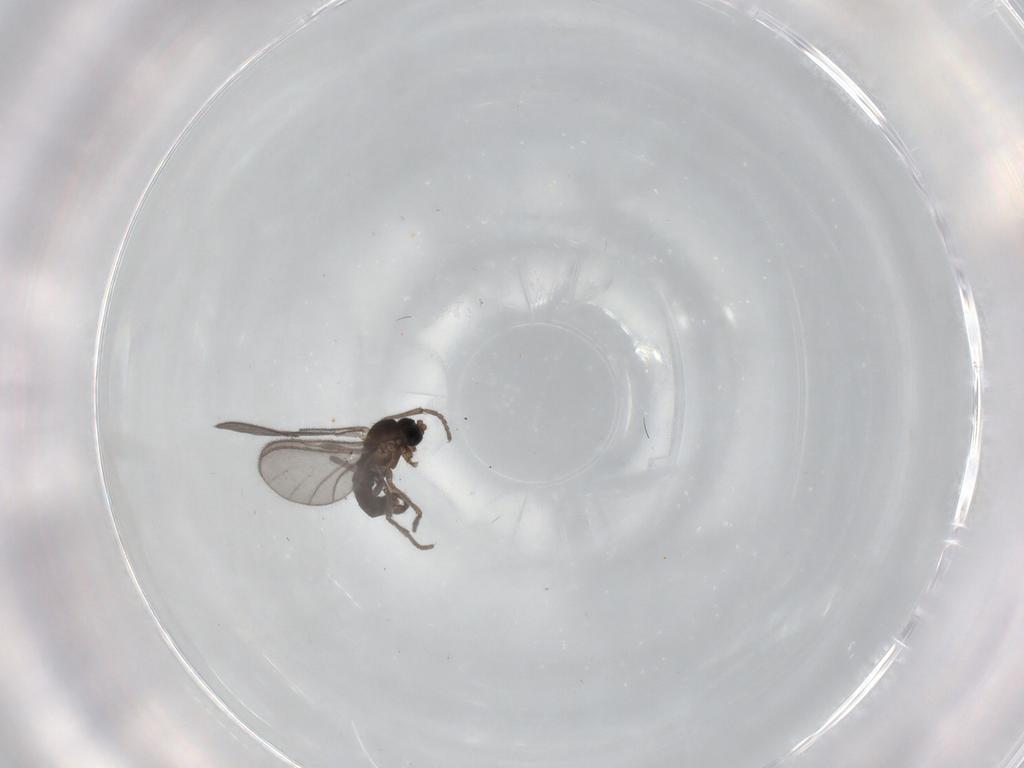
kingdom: Animalia
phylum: Arthropoda
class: Insecta
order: Diptera
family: Sciaridae
